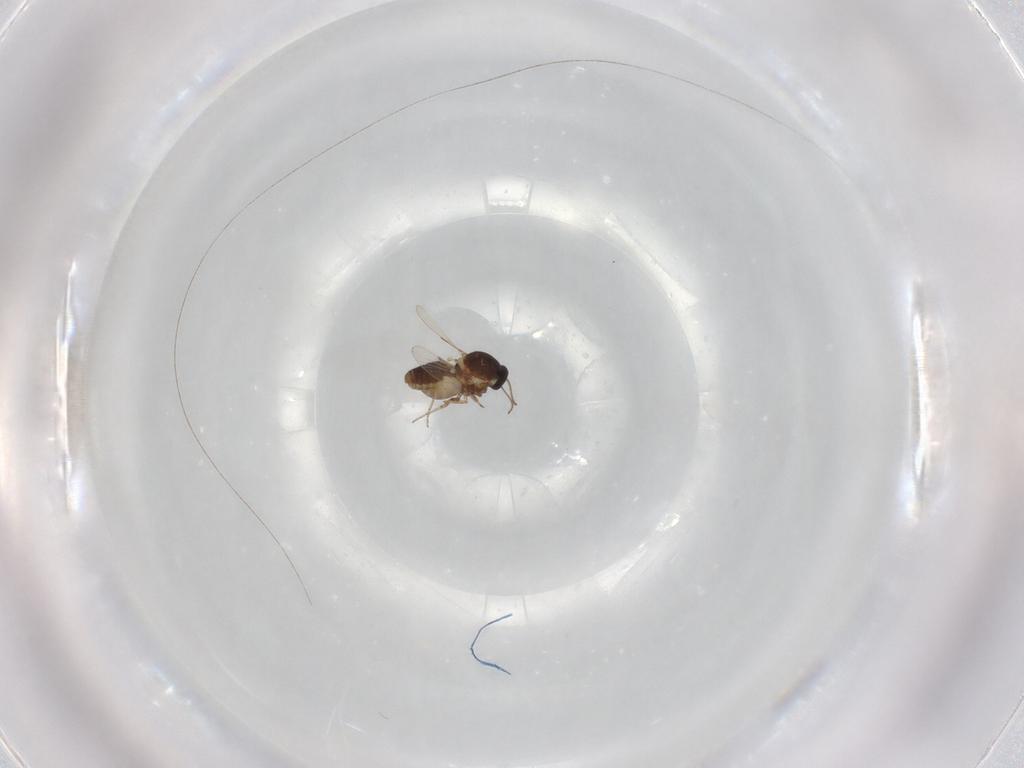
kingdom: Animalia
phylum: Arthropoda
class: Insecta
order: Diptera
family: Ceratopogonidae
